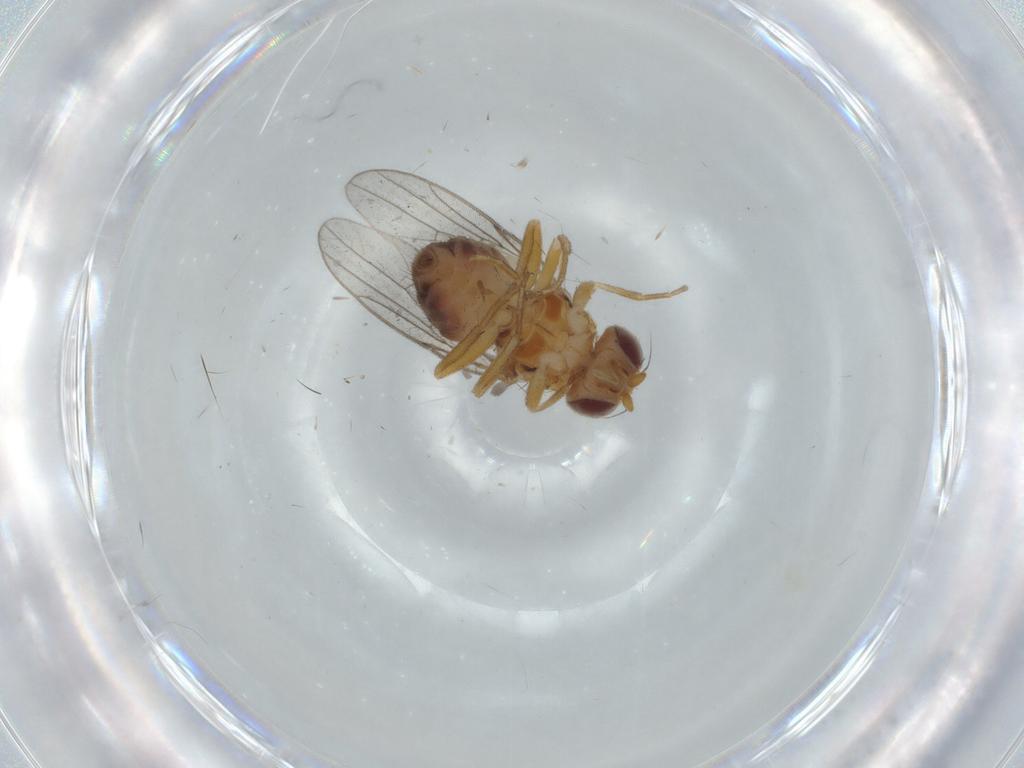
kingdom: Animalia
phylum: Arthropoda
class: Insecta
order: Diptera
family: Chloropidae
